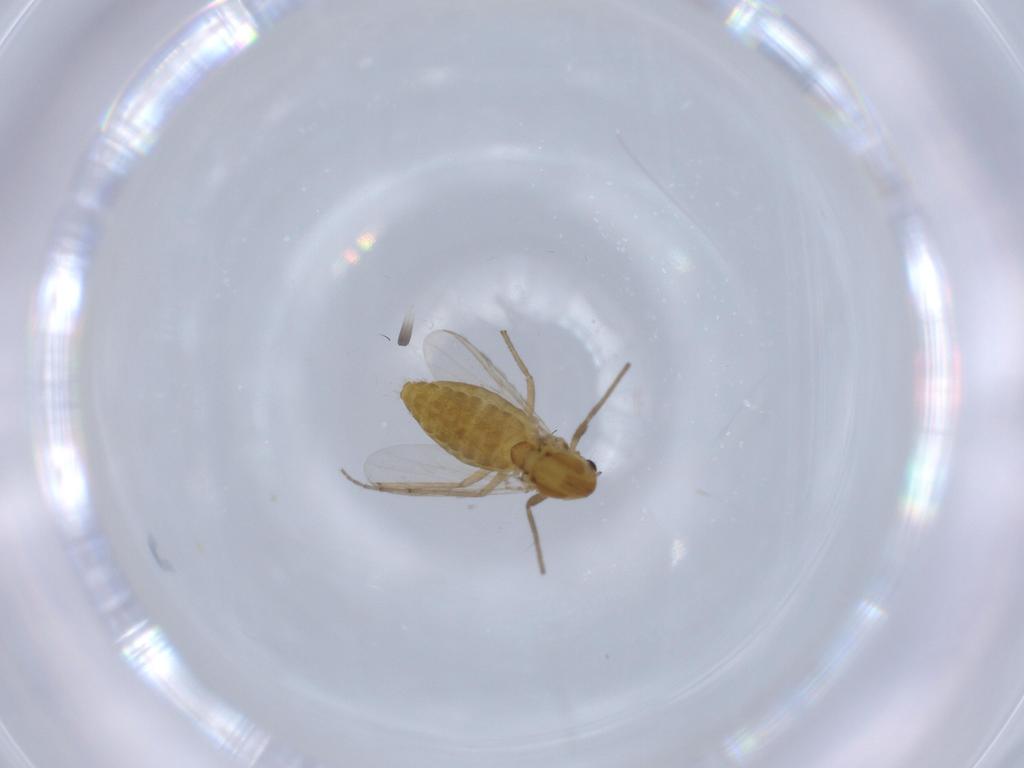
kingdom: Animalia
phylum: Arthropoda
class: Insecta
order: Diptera
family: Chironomidae
